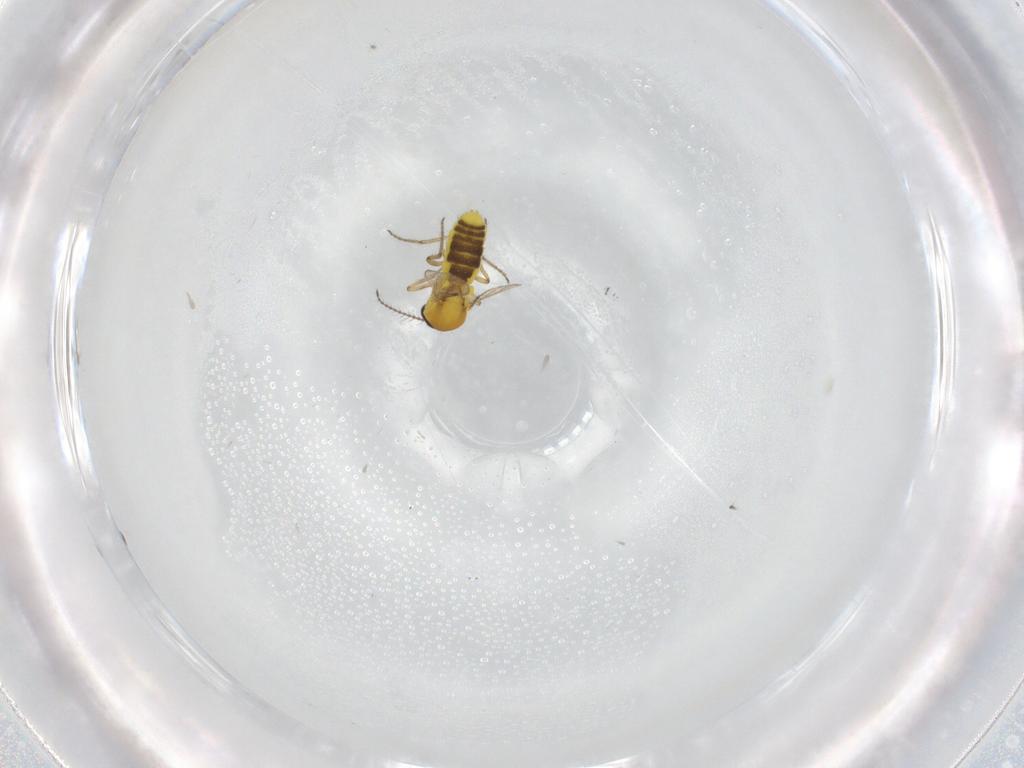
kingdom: Animalia
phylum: Arthropoda
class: Insecta
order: Diptera
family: Ceratopogonidae
